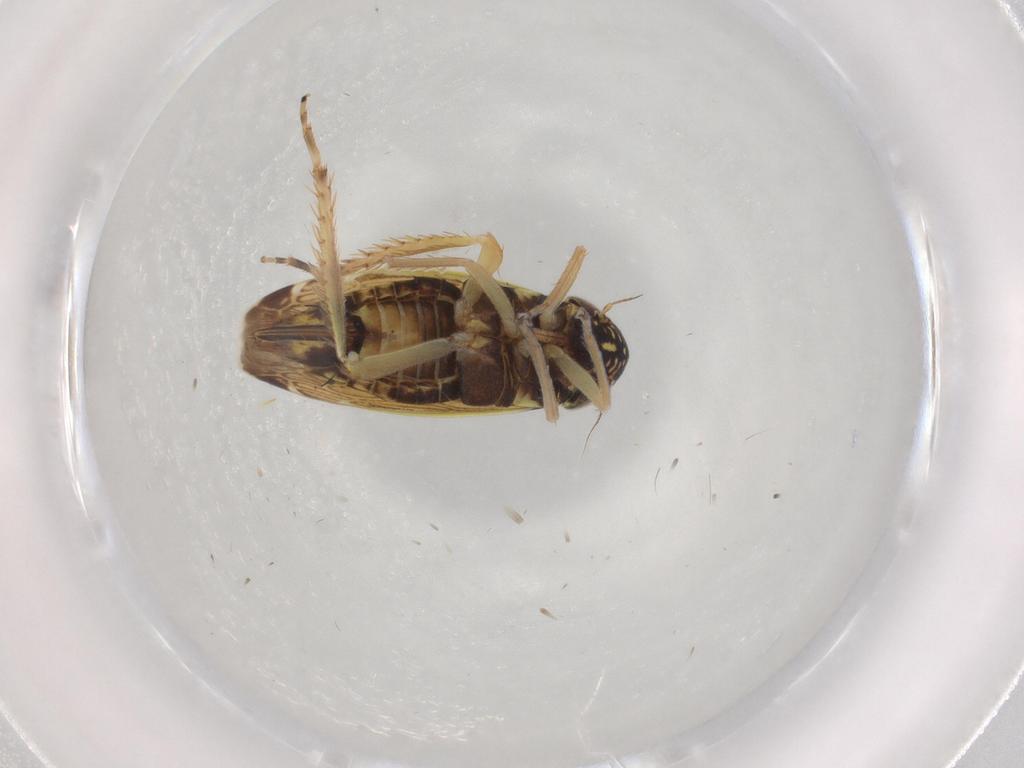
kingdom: Animalia
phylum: Arthropoda
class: Insecta
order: Hemiptera
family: Cicadellidae
